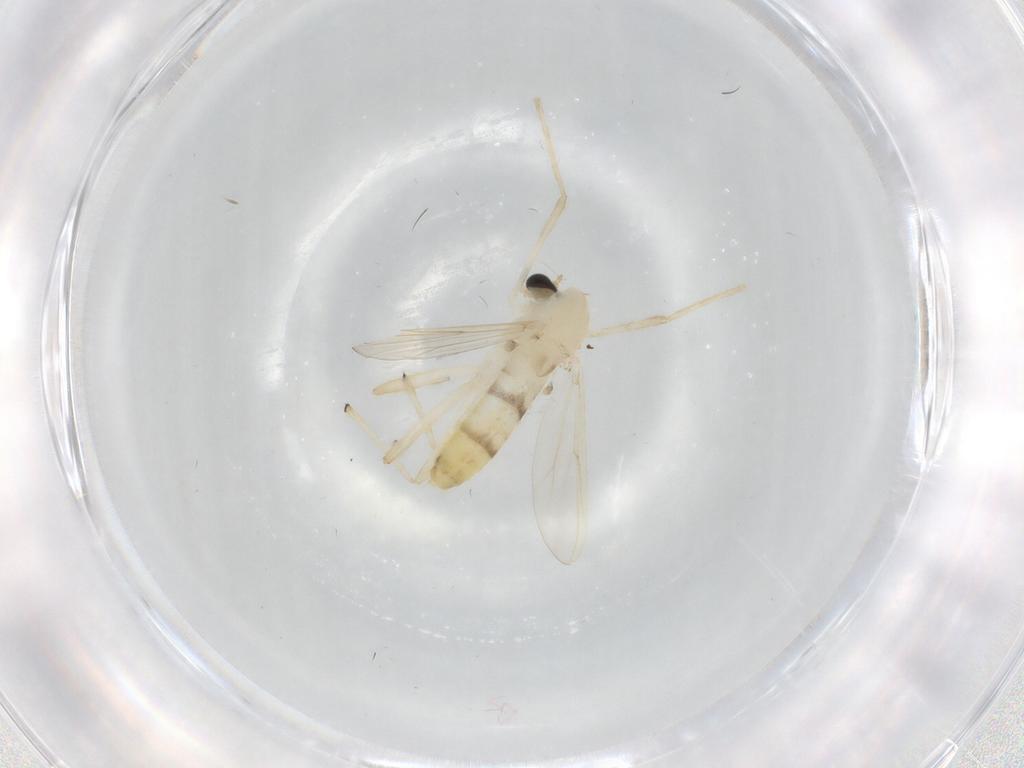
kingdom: Animalia
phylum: Arthropoda
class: Insecta
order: Diptera
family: Chironomidae
